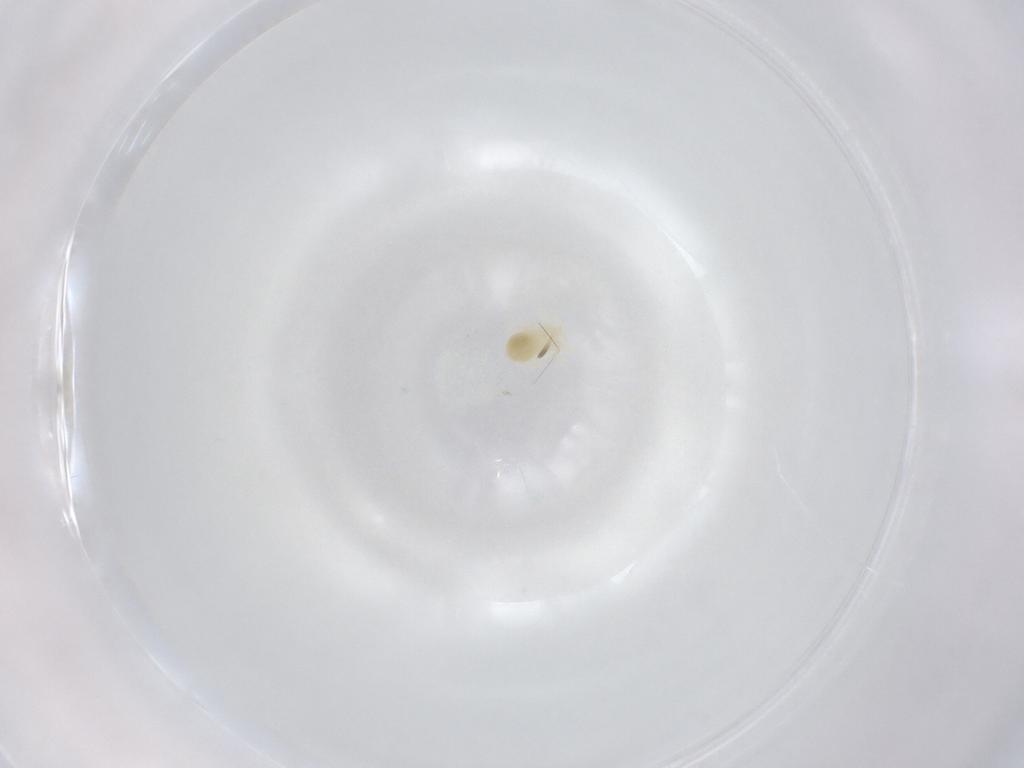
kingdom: Animalia
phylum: Arthropoda
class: Arachnida
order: Trombidiformes
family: Anystidae
